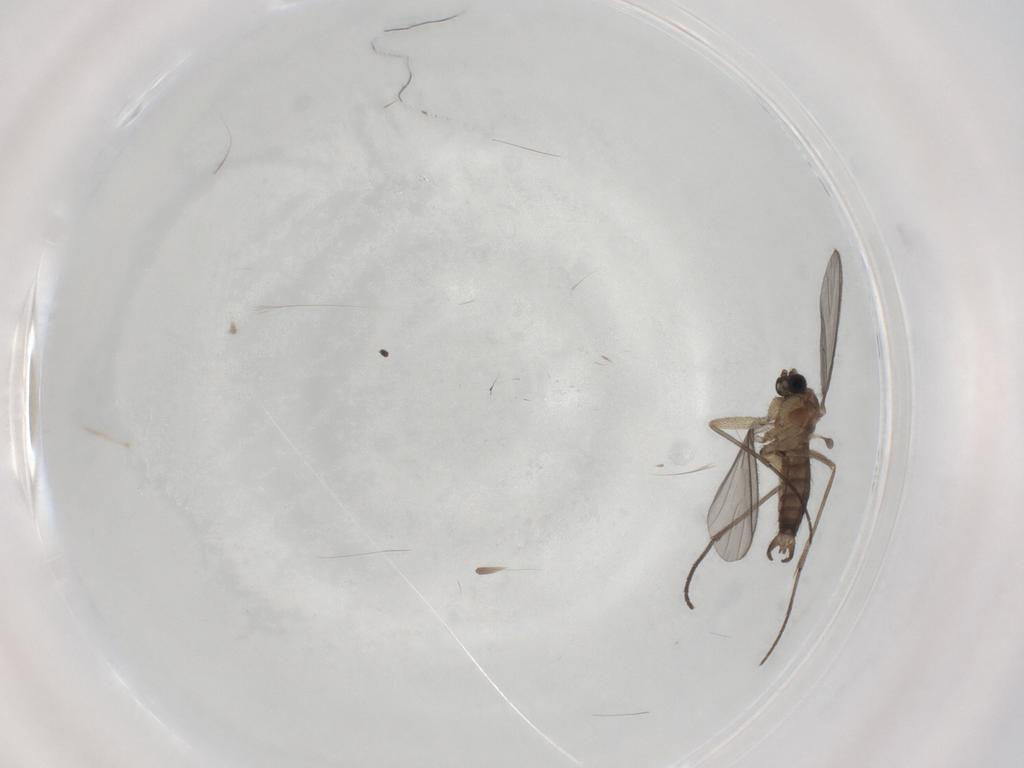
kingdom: Animalia
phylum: Arthropoda
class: Insecta
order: Diptera
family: Sciaridae
